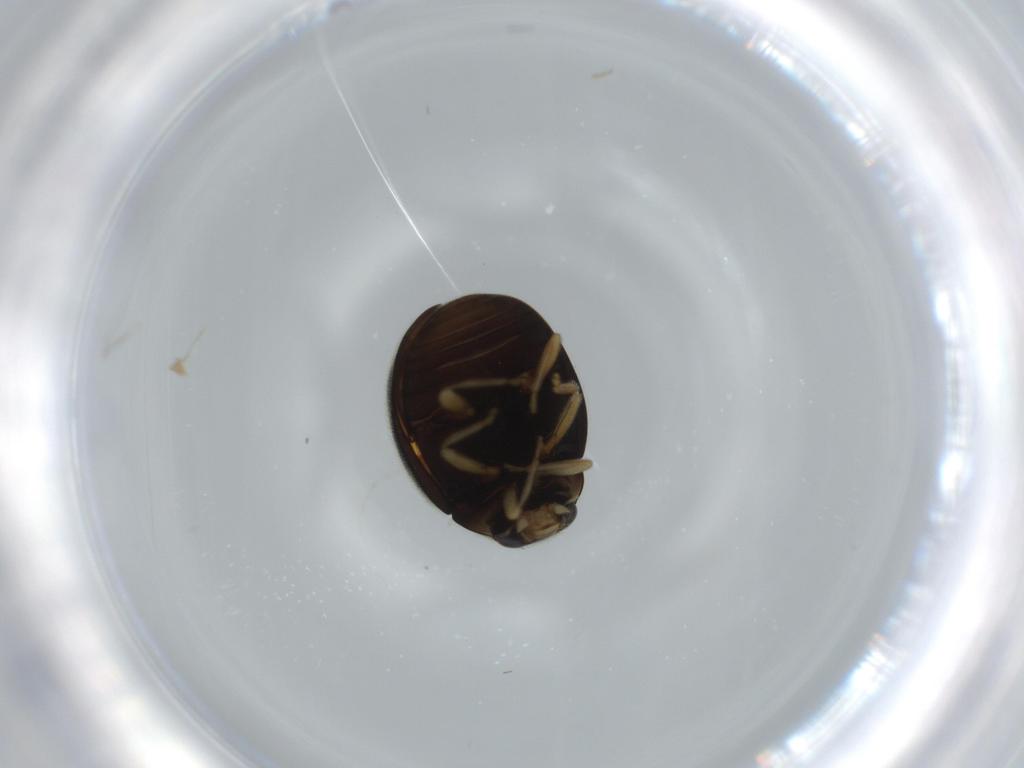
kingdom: Animalia
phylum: Arthropoda
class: Insecta
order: Coleoptera
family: Coccinellidae
